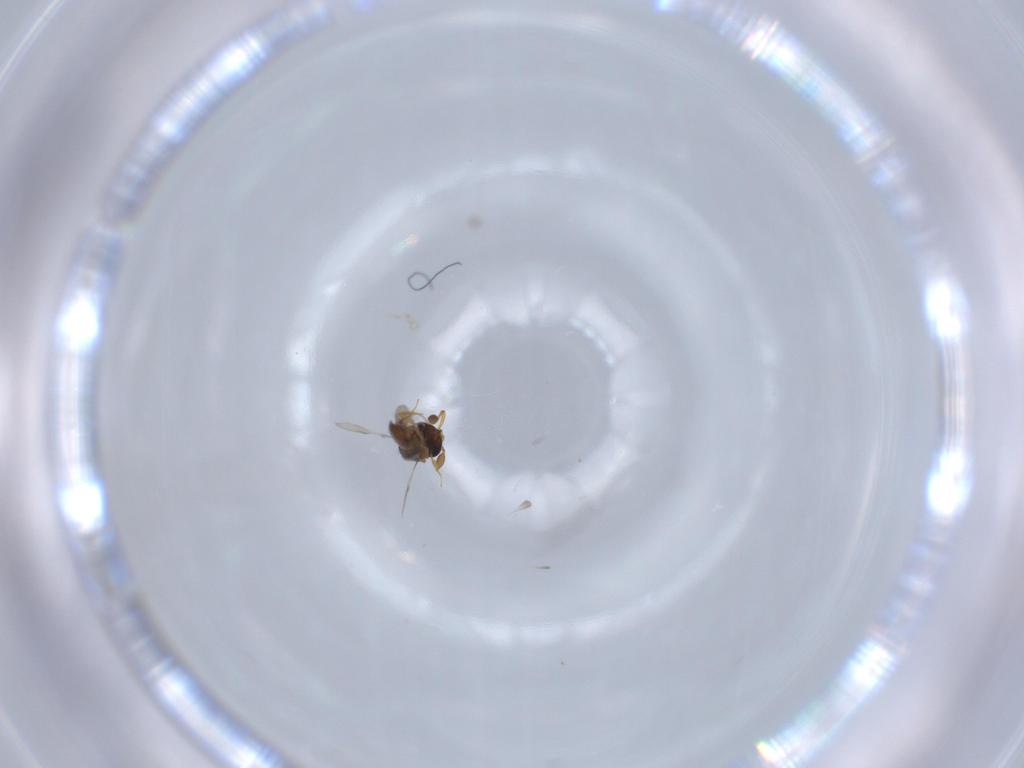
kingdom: Animalia
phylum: Arthropoda
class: Insecta
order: Hymenoptera
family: Scelionidae
